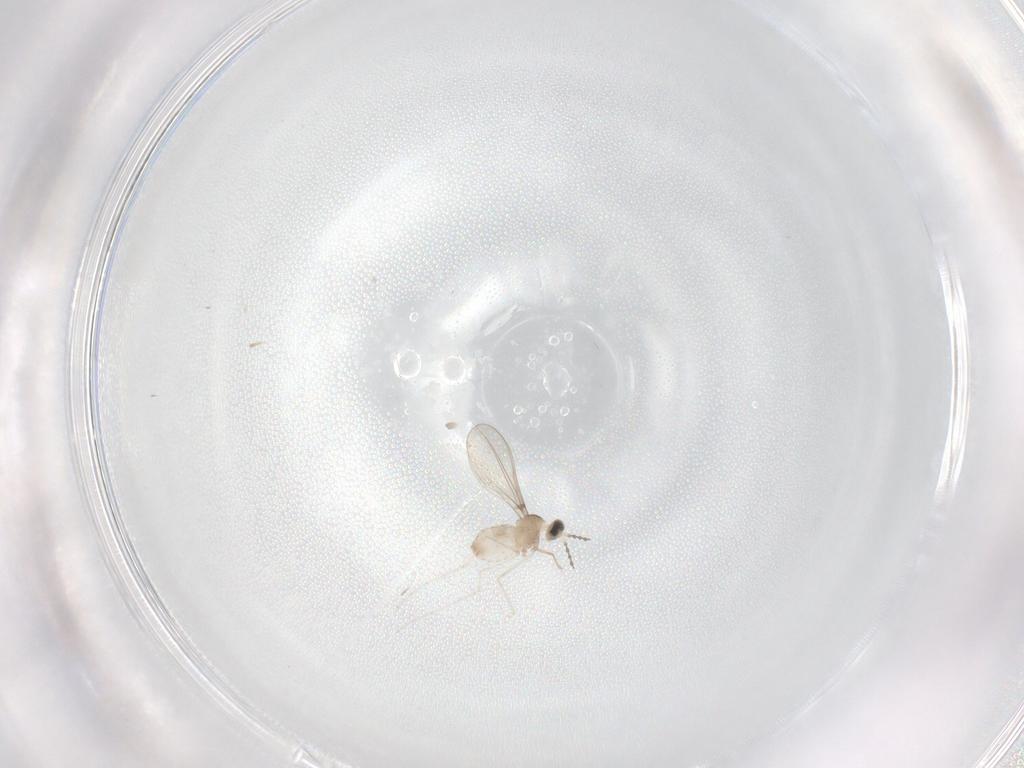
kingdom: Animalia
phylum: Arthropoda
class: Insecta
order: Diptera
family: Cecidomyiidae
